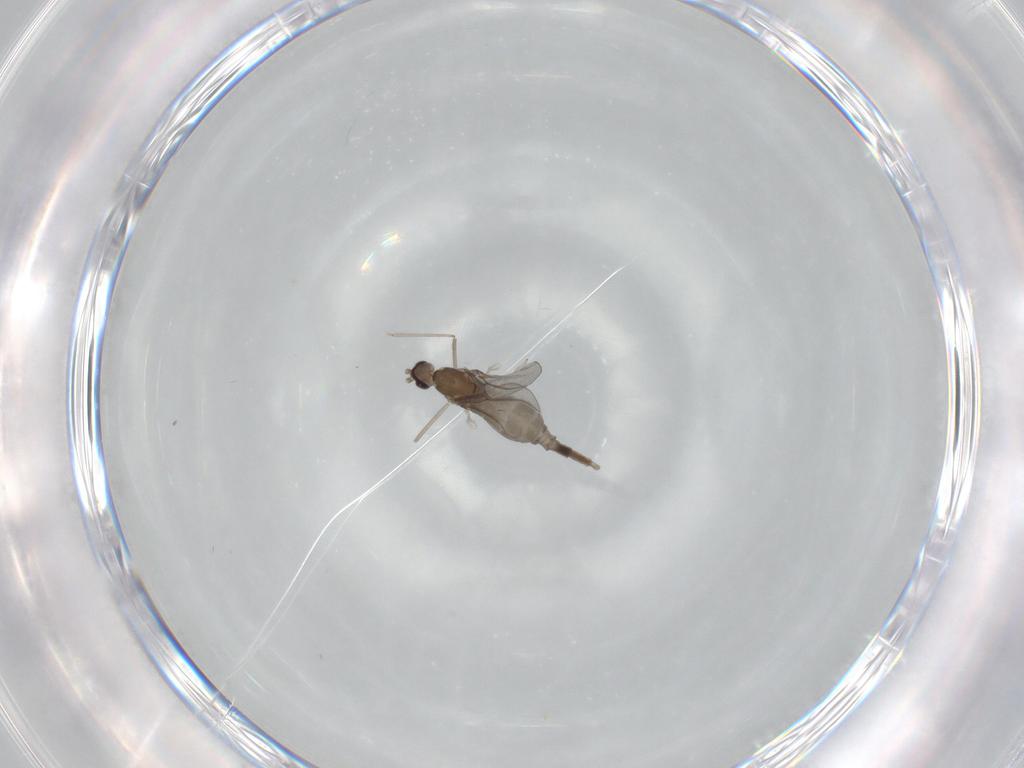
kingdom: Animalia
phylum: Arthropoda
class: Insecta
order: Diptera
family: Cecidomyiidae
